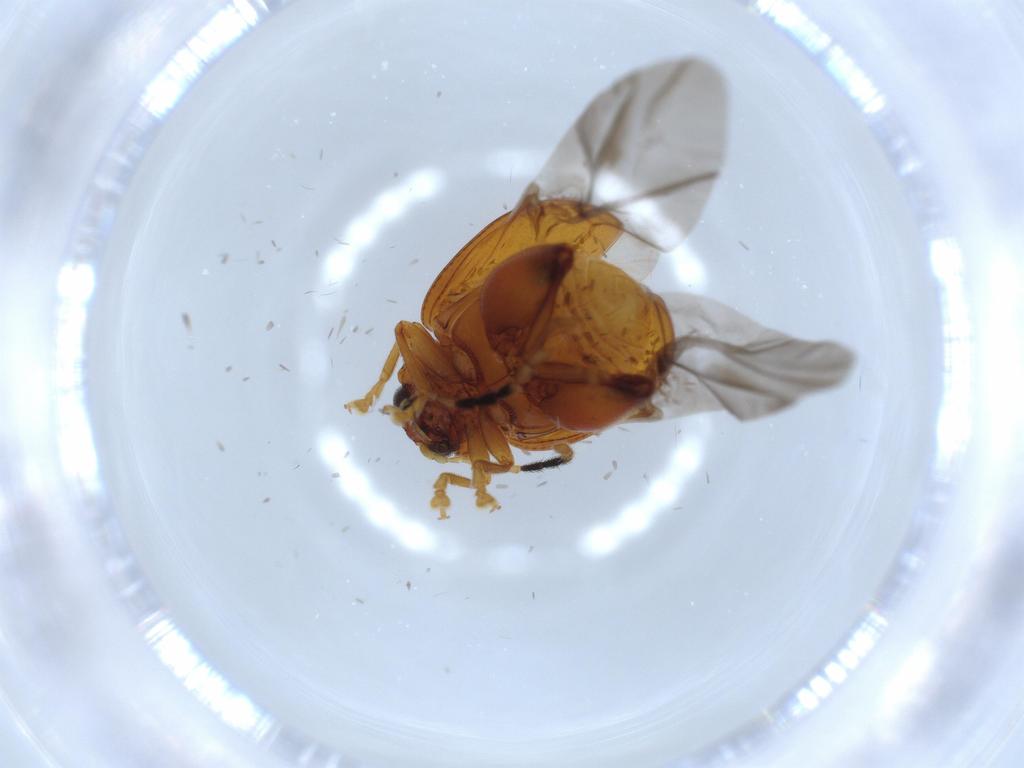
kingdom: Animalia
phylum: Arthropoda
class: Insecta
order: Coleoptera
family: Chrysomelidae
